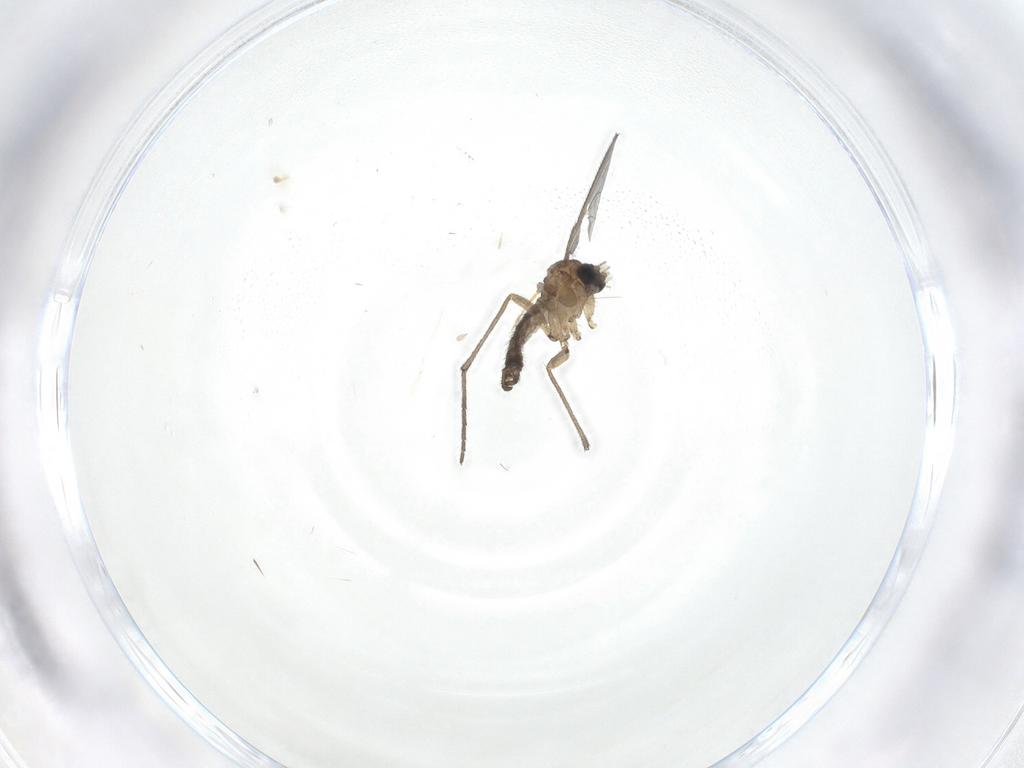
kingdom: Animalia
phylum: Arthropoda
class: Insecta
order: Diptera
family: Sciaridae
